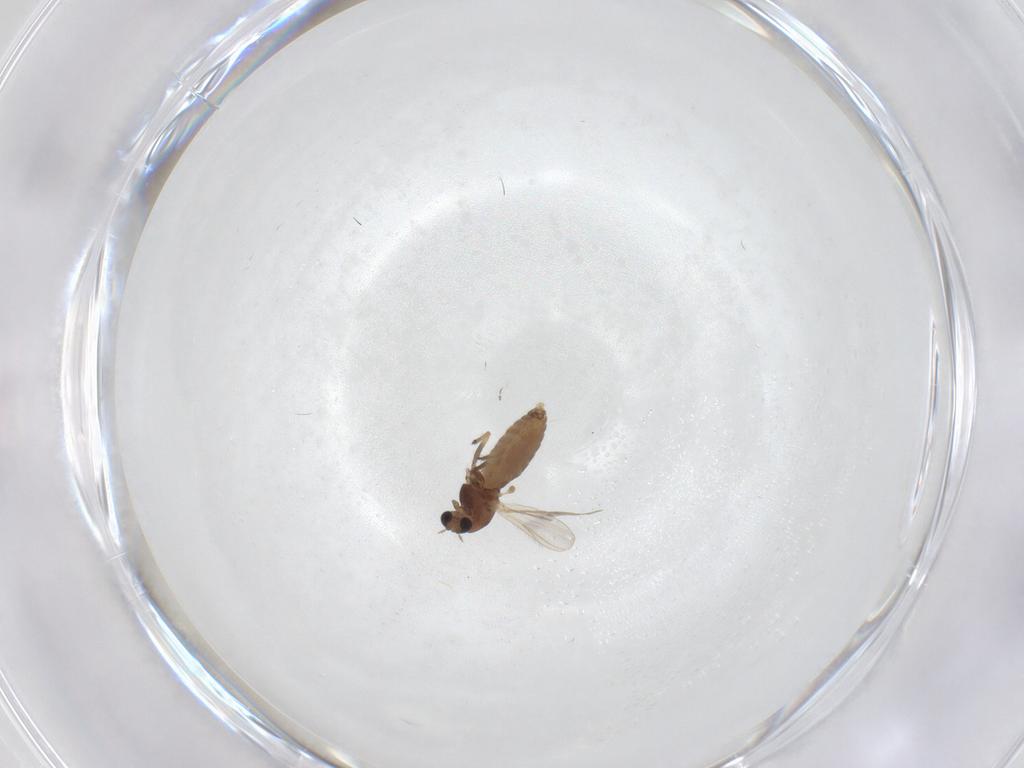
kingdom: Animalia
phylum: Arthropoda
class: Insecta
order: Diptera
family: Chironomidae
